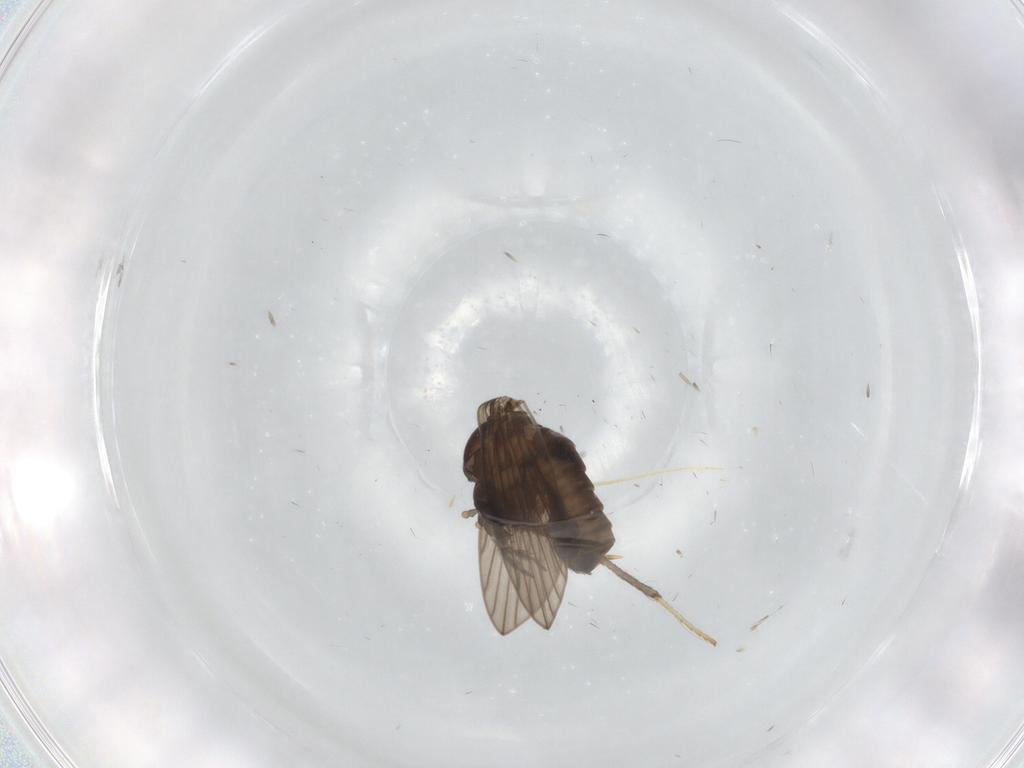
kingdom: Animalia
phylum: Arthropoda
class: Insecta
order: Diptera
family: Psychodidae
